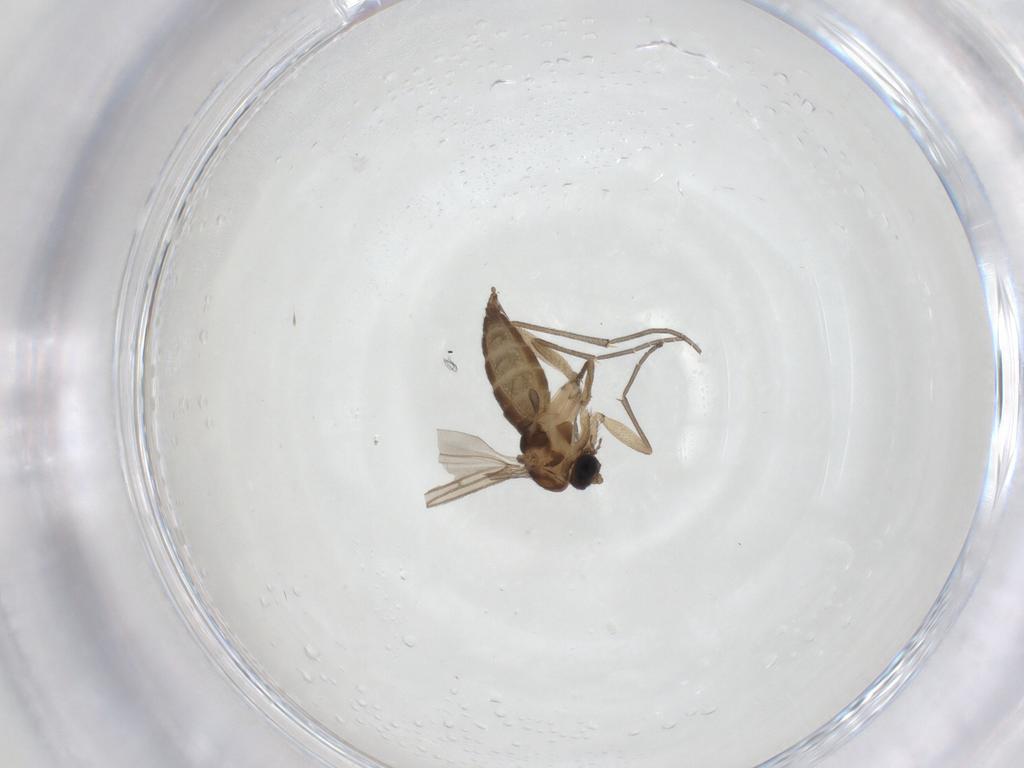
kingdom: Animalia
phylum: Arthropoda
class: Insecta
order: Diptera
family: Sciaridae
